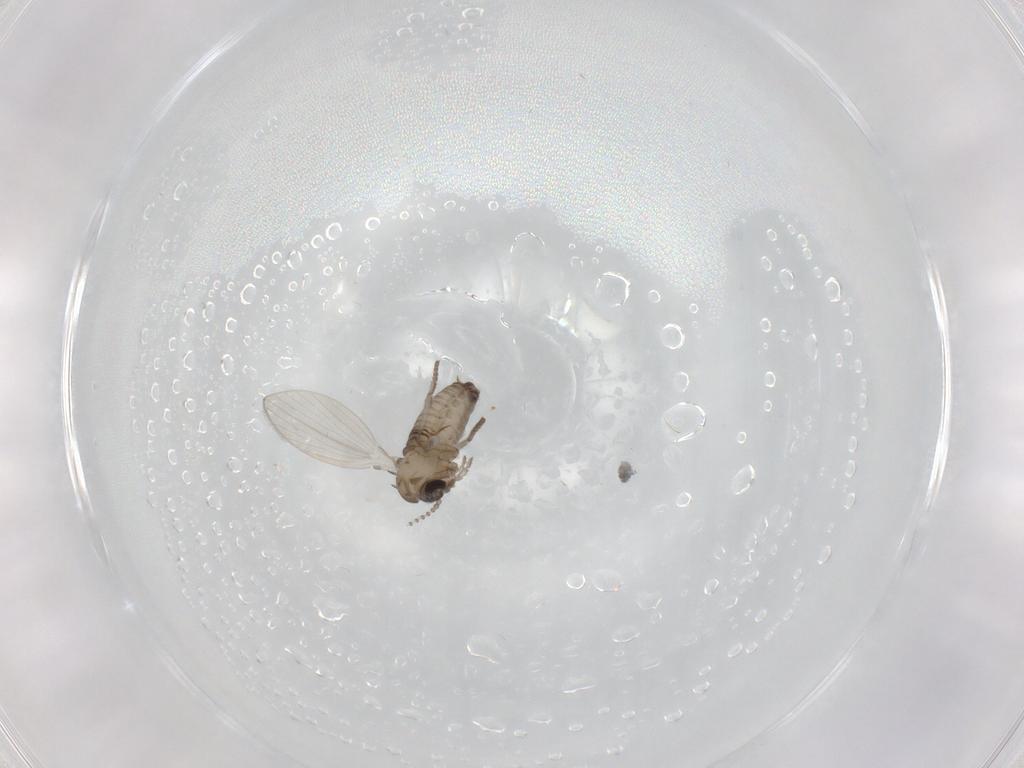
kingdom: Animalia
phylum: Arthropoda
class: Insecta
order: Diptera
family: Psychodidae
